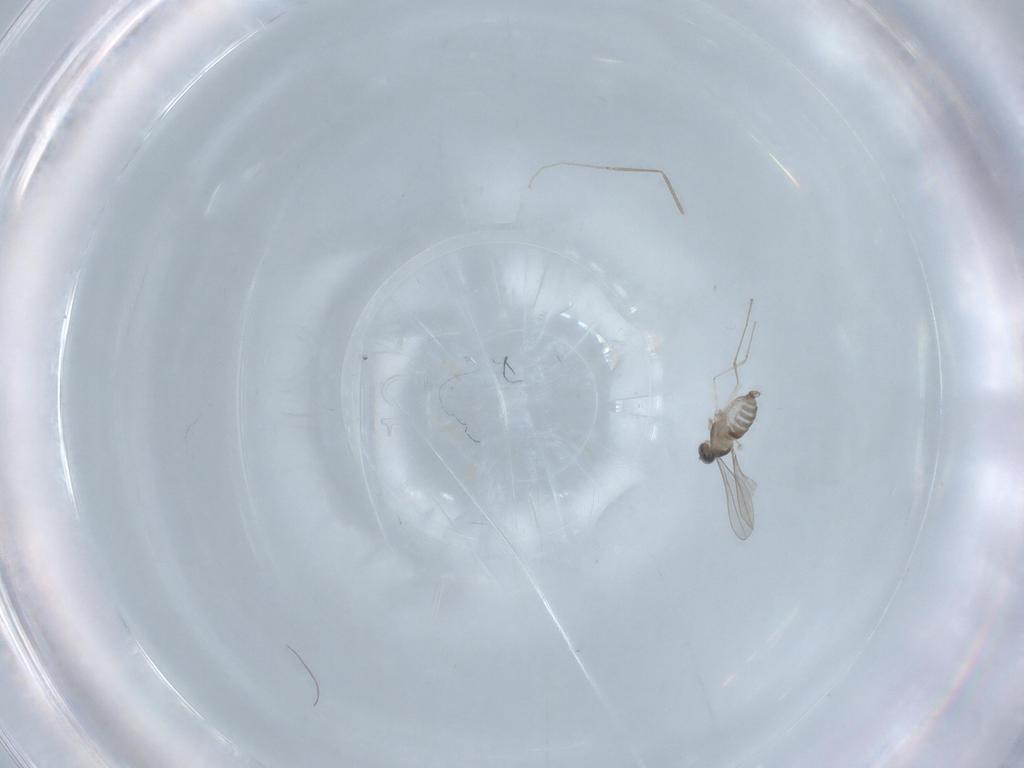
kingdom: Animalia
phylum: Arthropoda
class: Insecta
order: Diptera
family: Cecidomyiidae
